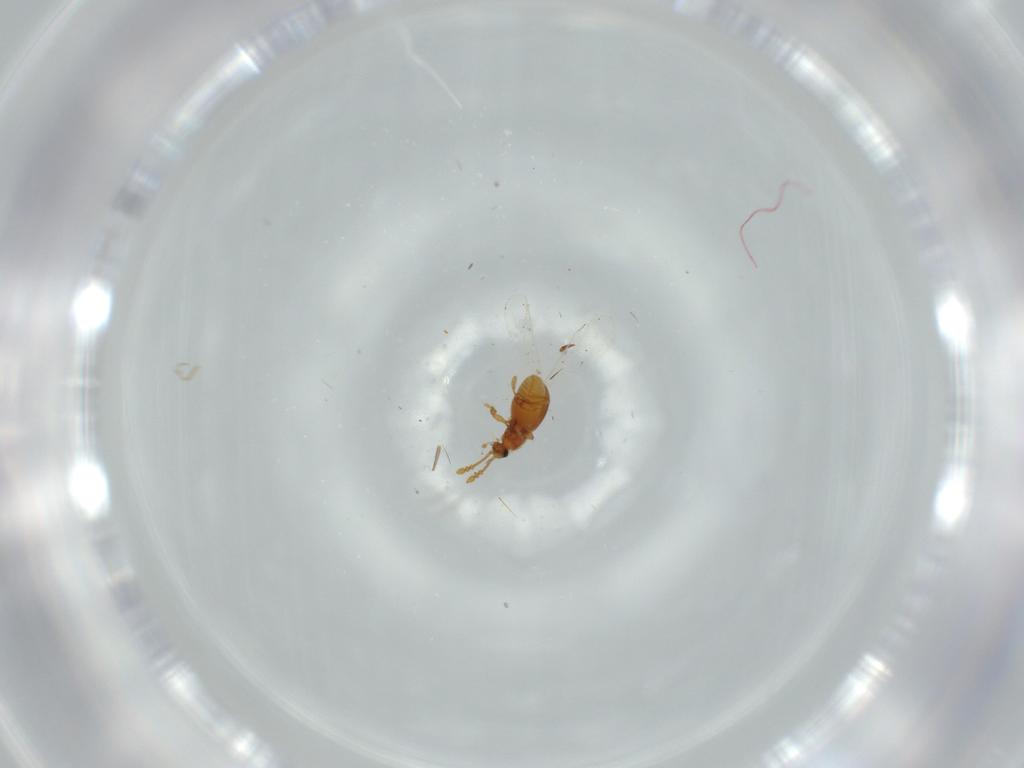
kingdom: Animalia
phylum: Arthropoda
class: Insecta
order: Coleoptera
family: Staphylinidae
